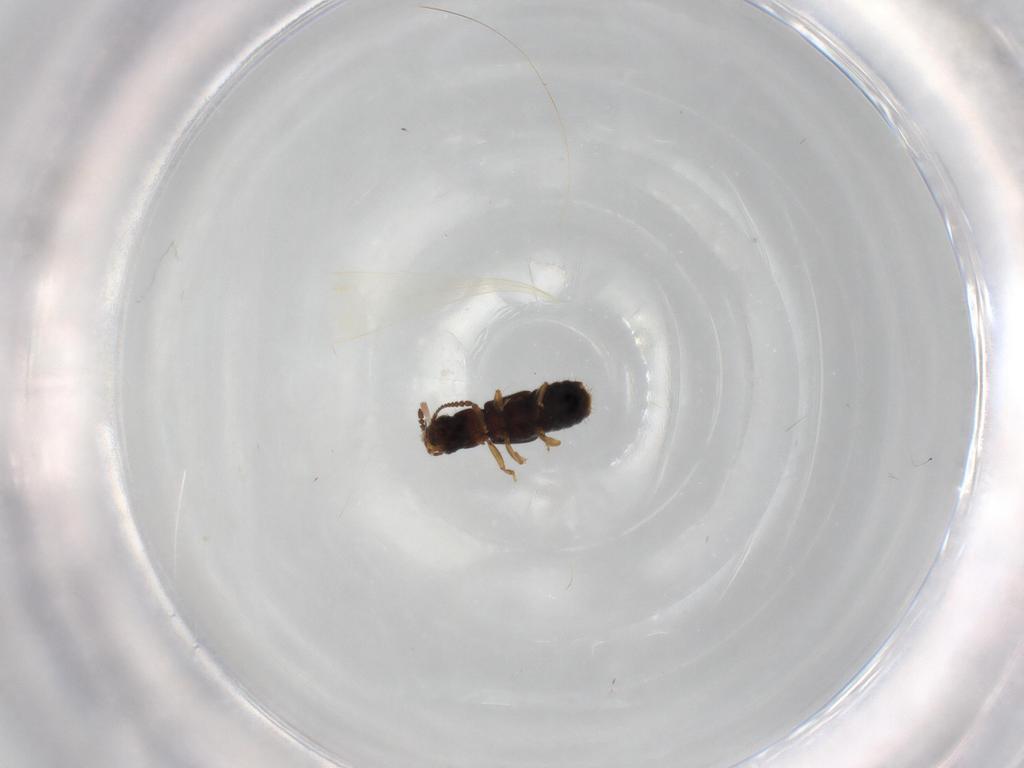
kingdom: Animalia
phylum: Arthropoda
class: Insecta
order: Coleoptera
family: Staphylinidae
